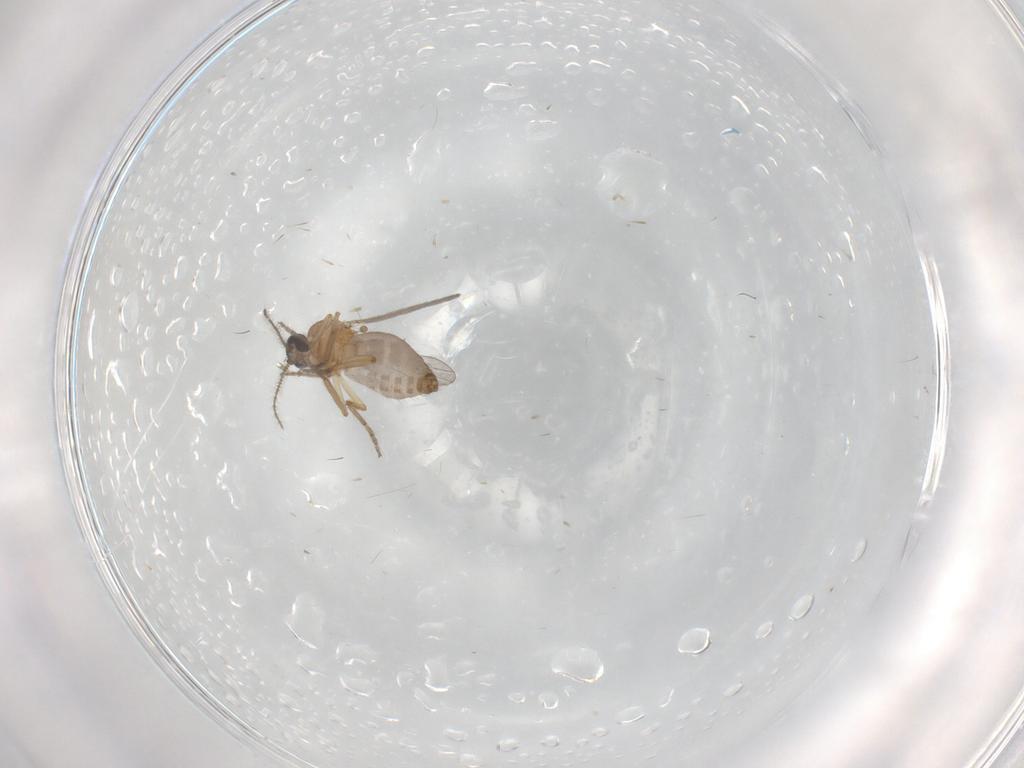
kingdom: Animalia
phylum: Arthropoda
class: Insecta
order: Diptera
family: Ceratopogonidae
